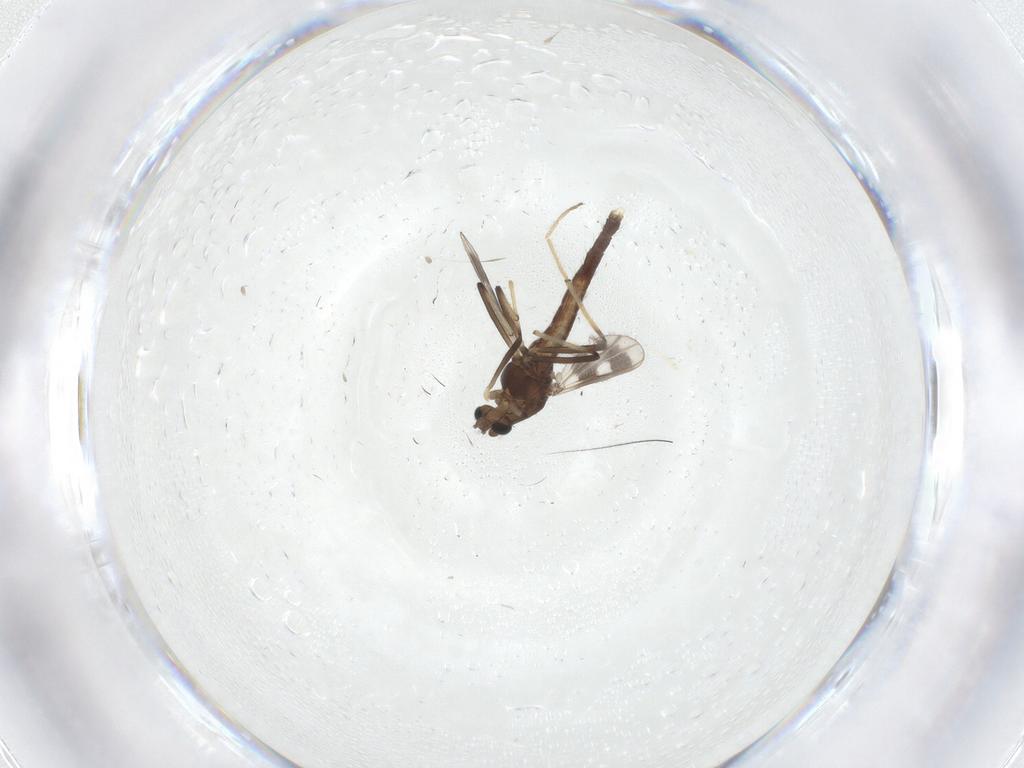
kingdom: Animalia
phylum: Arthropoda
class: Insecta
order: Diptera
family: Chironomidae
